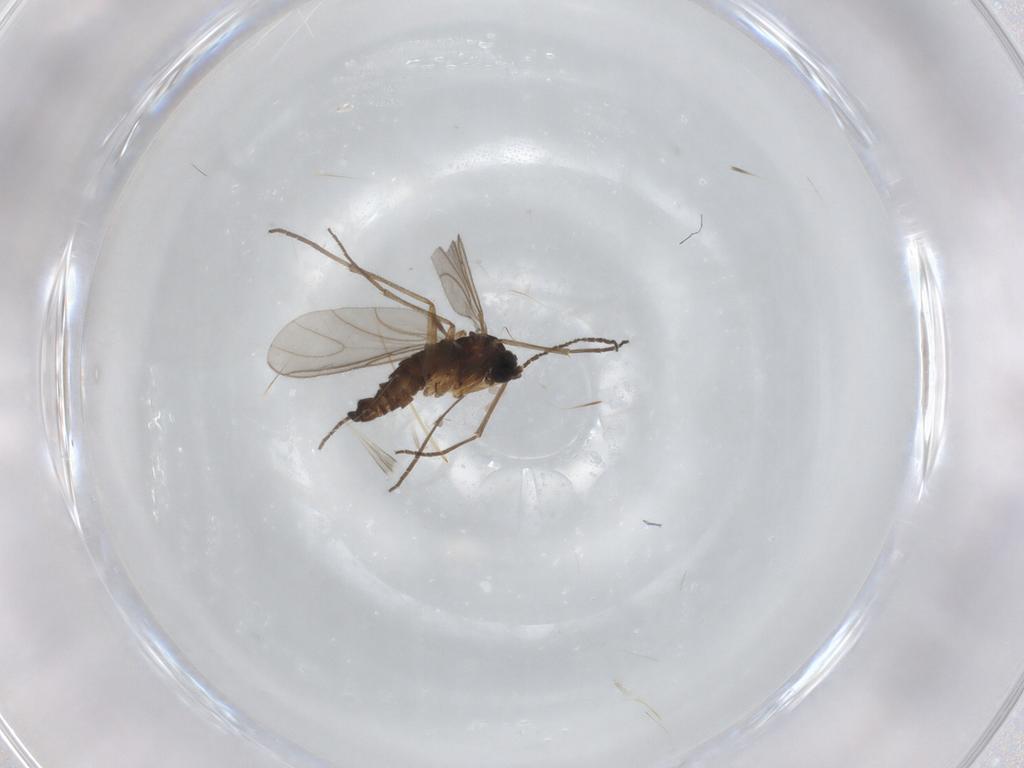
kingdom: Animalia
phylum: Arthropoda
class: Insecta
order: Diptera
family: Sciaridae
